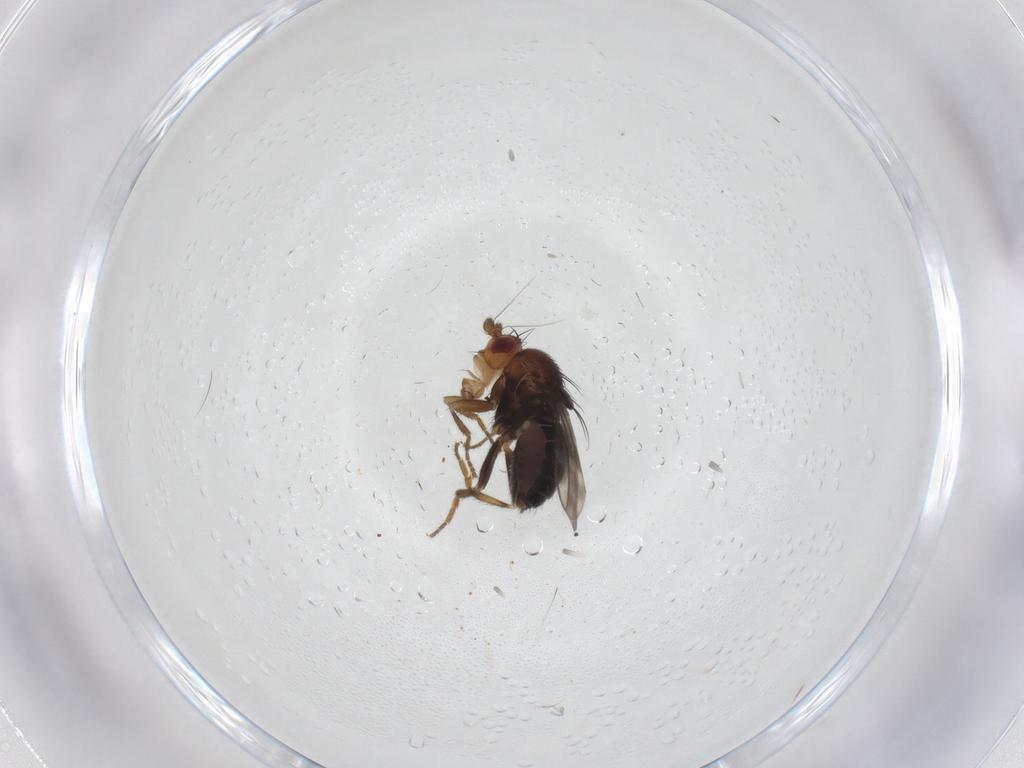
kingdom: Animalia
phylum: Arthropoda
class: Insecta
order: Diptera
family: Sphaeroceridae
